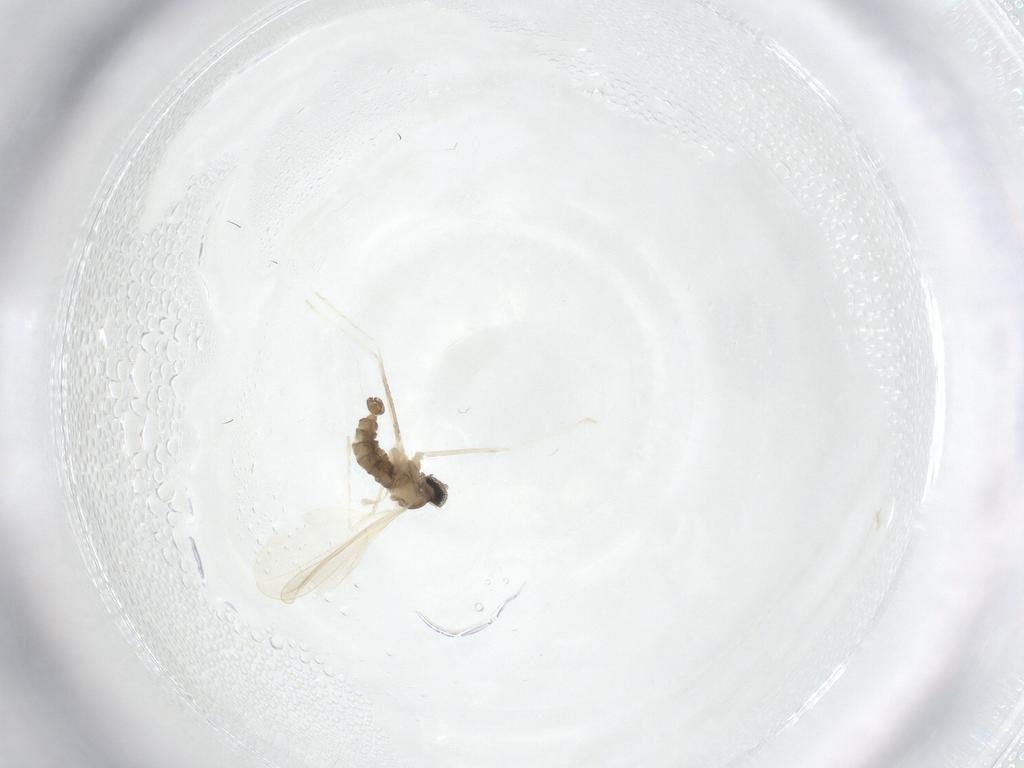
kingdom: Animalia
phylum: Arthropoda
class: Insecta
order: Diptera
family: Cecidomyiidae
